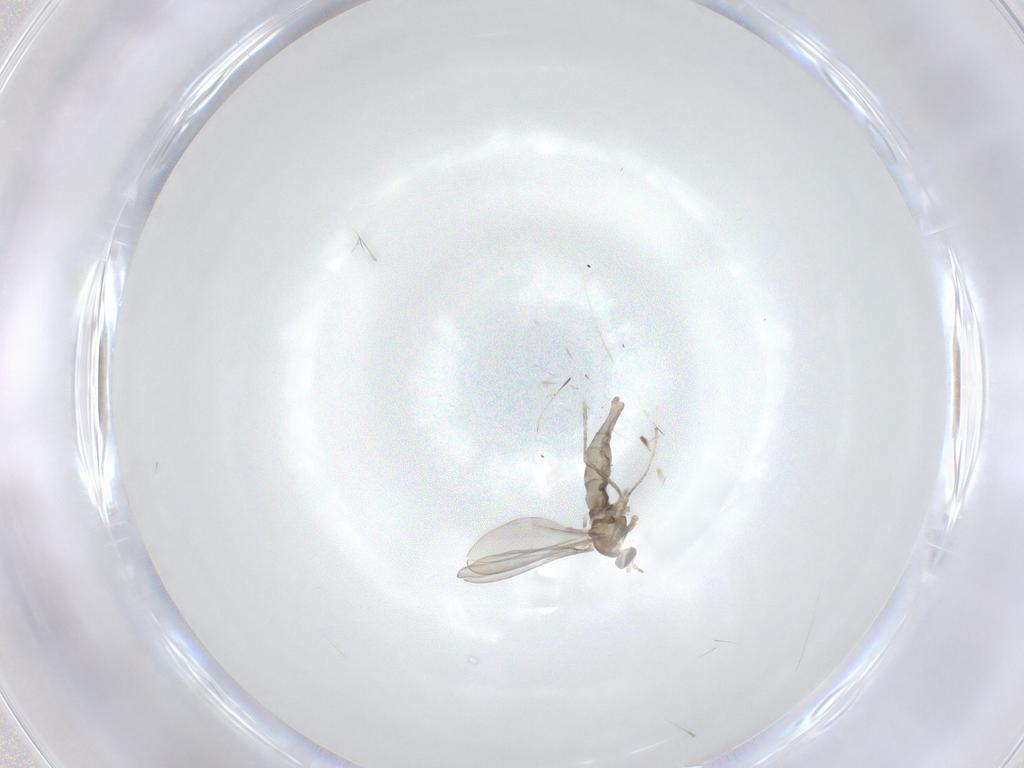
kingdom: Animalia
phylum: Arthropoda
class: Insecta
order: Diptera
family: Cecidomyiidae
